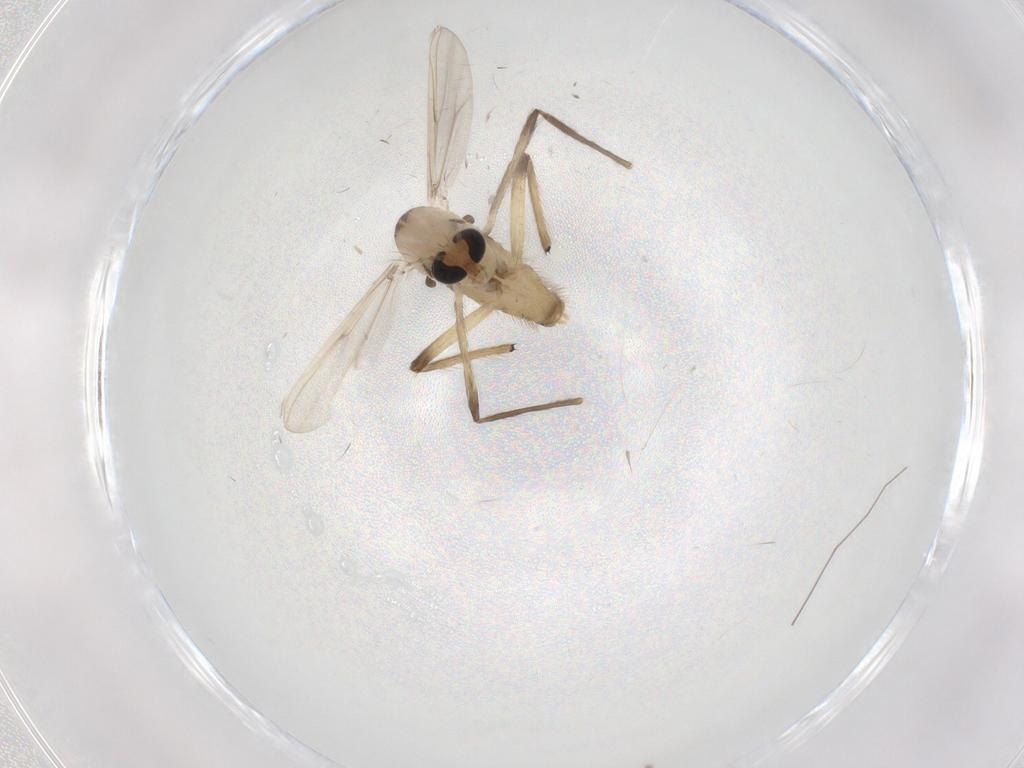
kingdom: Animalia
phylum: Arthropoda
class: Insecta
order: Diptera
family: Chironomidae
